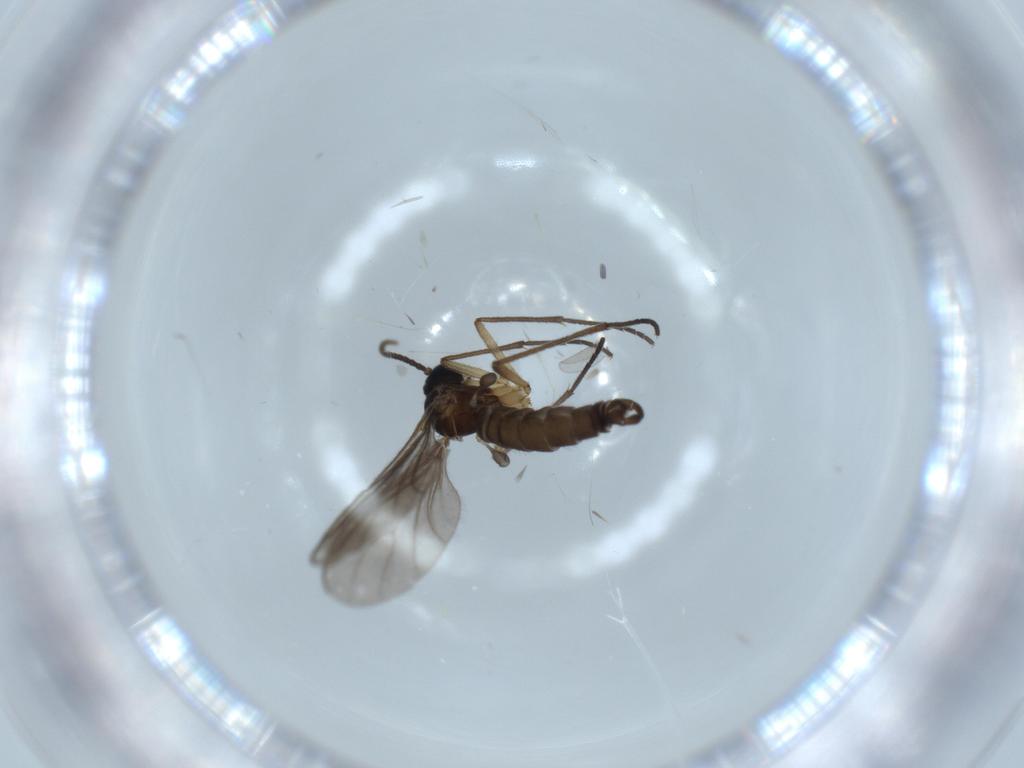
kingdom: Animalia
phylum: Arthropoda
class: Insecta
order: Diptera
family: Sciaridae
